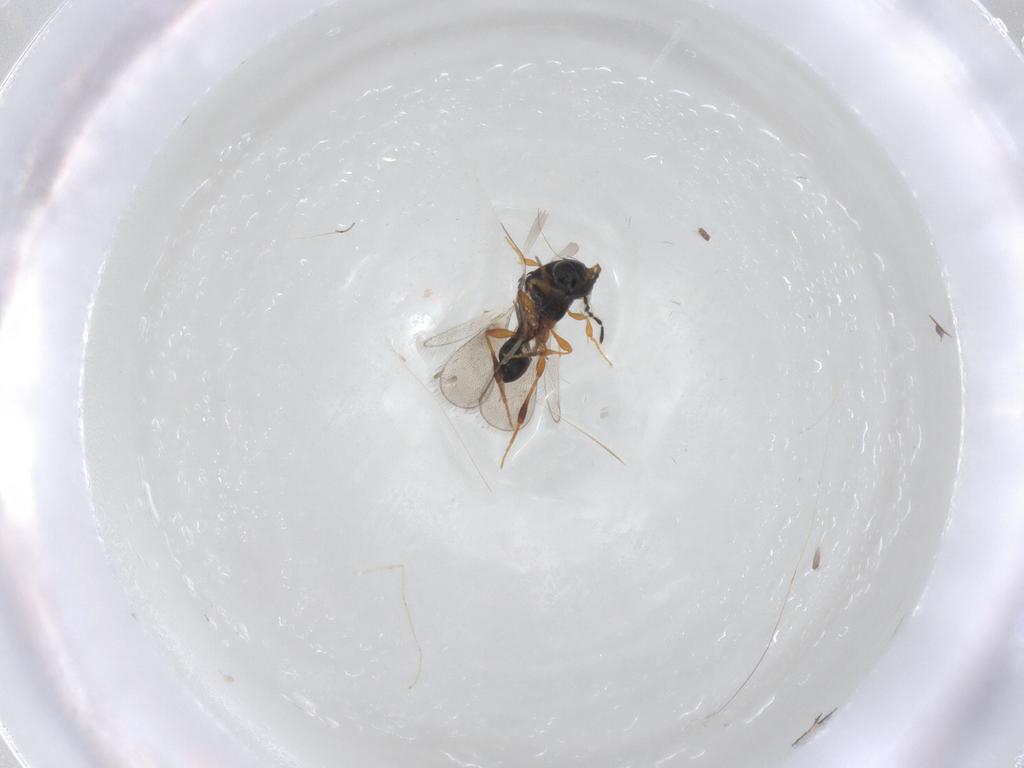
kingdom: Animalia
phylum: Arthropoda
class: Insecta
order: Hymenoptera
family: Platygastridae
